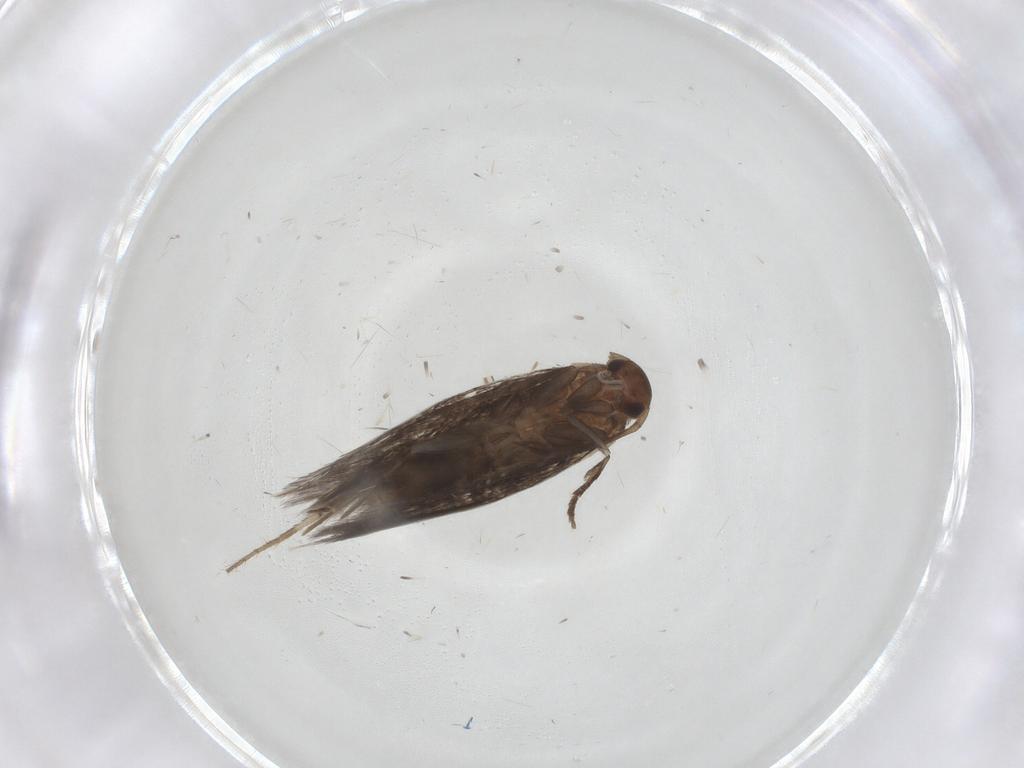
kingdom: Animalia
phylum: Arthropoda
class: Insecta
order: Lepidoptera
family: Elachistidae
